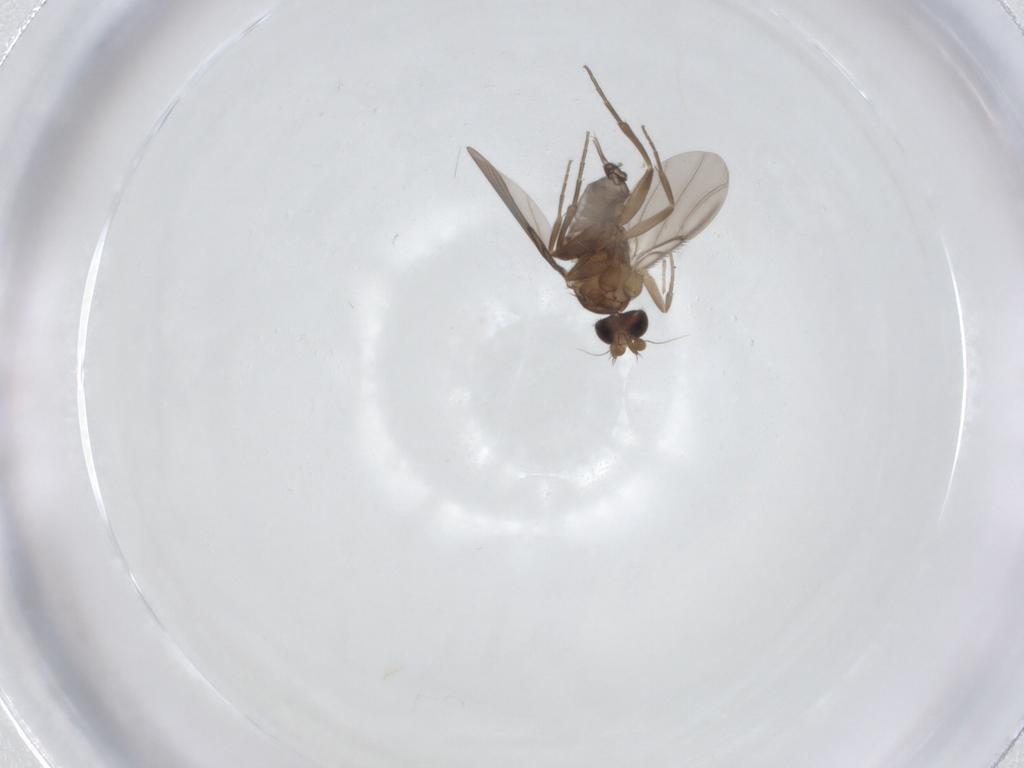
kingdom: Animalia
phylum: Arthropoda
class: Insecta
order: Diptera
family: Phoridae
